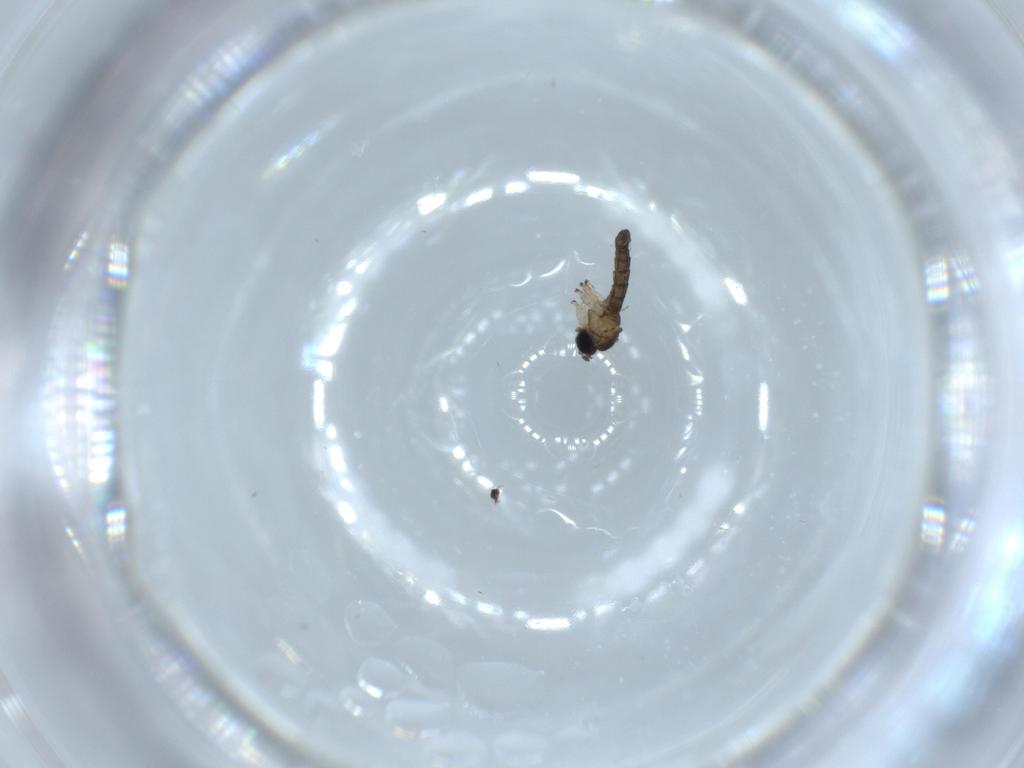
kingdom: Animalia
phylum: Arthropoda
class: Insecta
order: Diptera
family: Sciaridae
